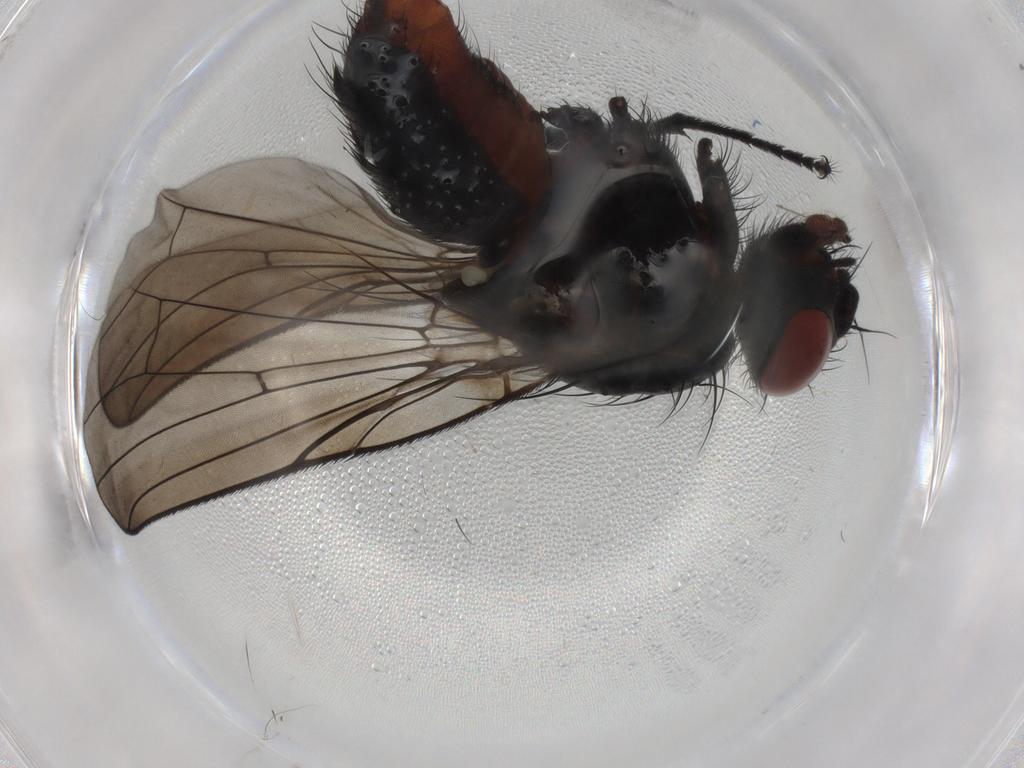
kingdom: Animalia
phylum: Arthropoda
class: Insecta
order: Diptera
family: Anthomyiidae
